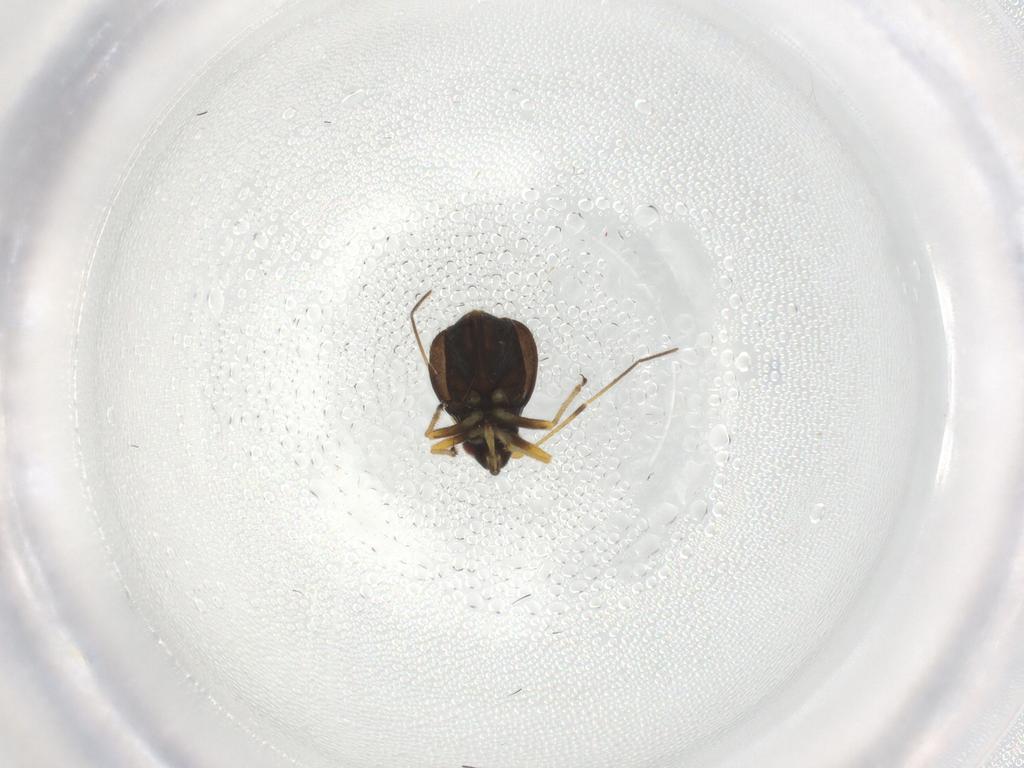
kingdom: Animalia
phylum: Arthropoda
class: Insecta
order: Hemiptera
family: Miridae
